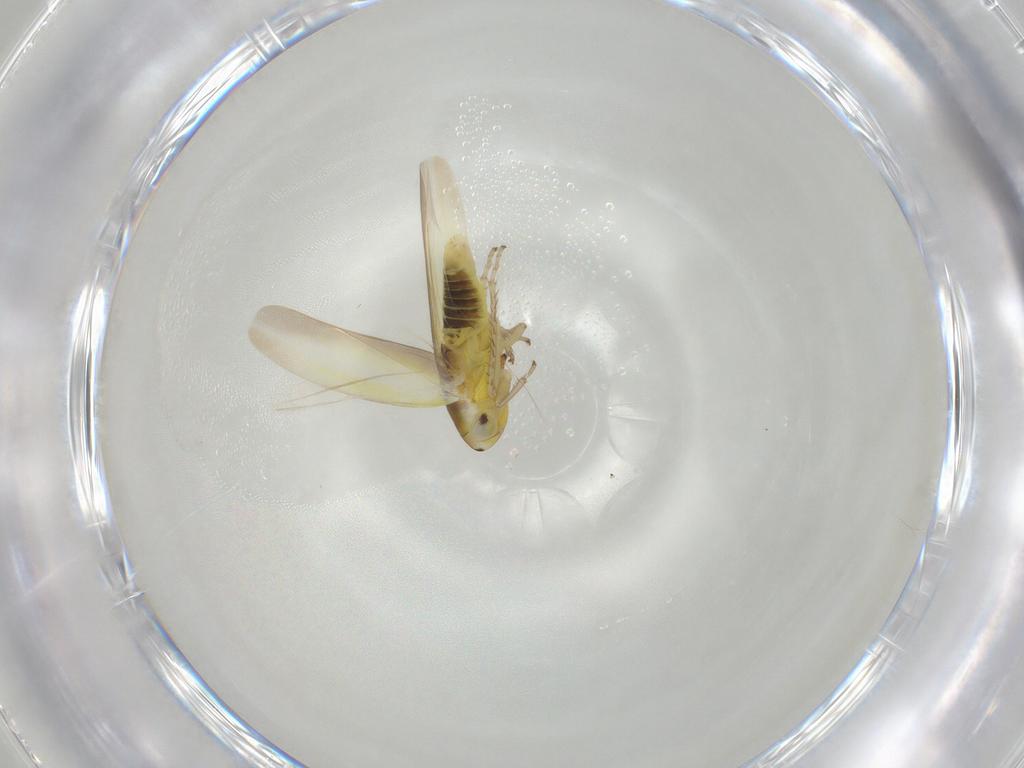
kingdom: Animalia
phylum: Arthropoda
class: Insecta
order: Hemiptera
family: Cicadellidae
